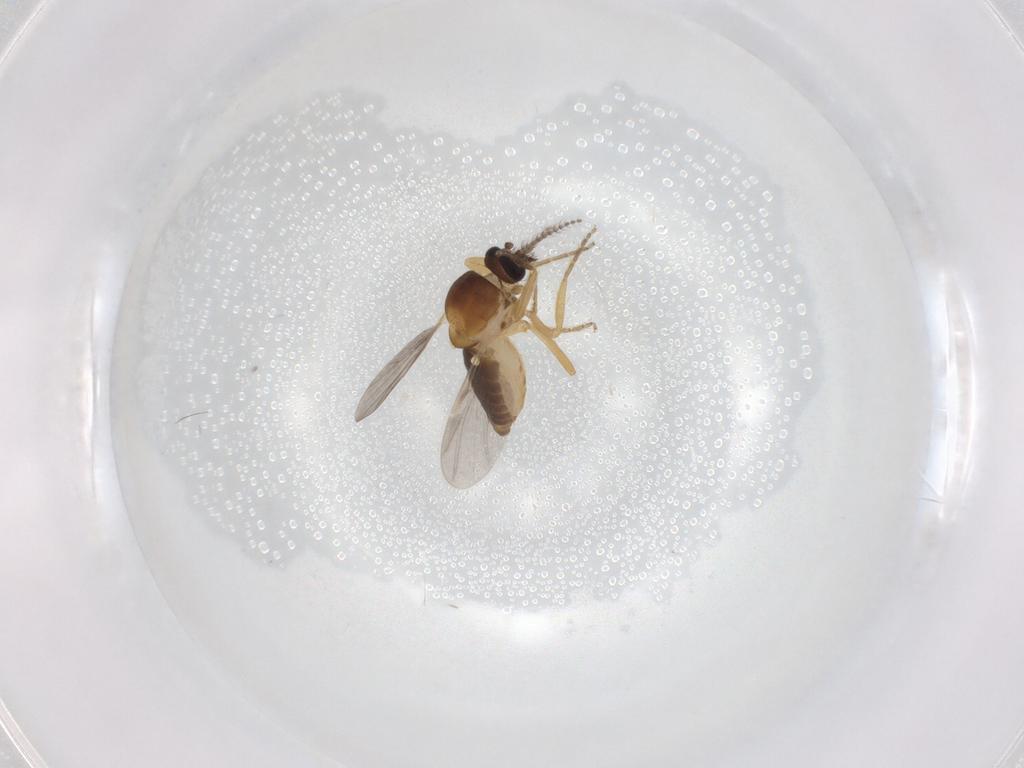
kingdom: Animalia
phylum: Arthropoda
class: Insecta
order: Diptera
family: Ceratopogonidae
